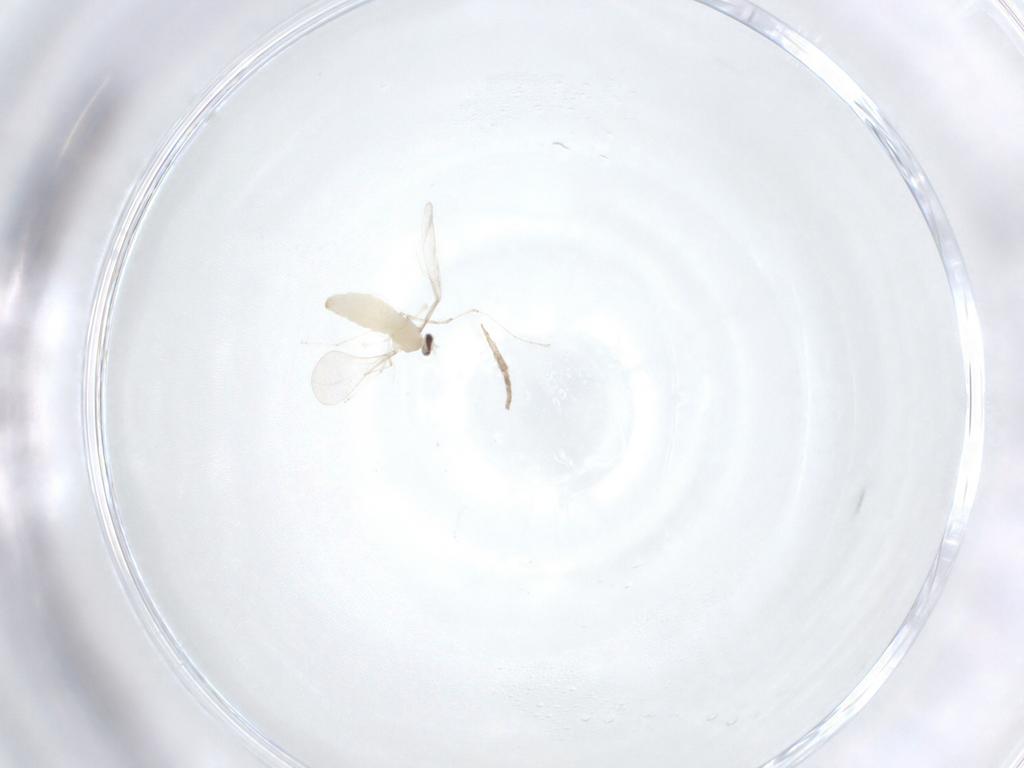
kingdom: Animalia
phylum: Arthropoda
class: Insecta
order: Diptera
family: Cecidomyiidae
